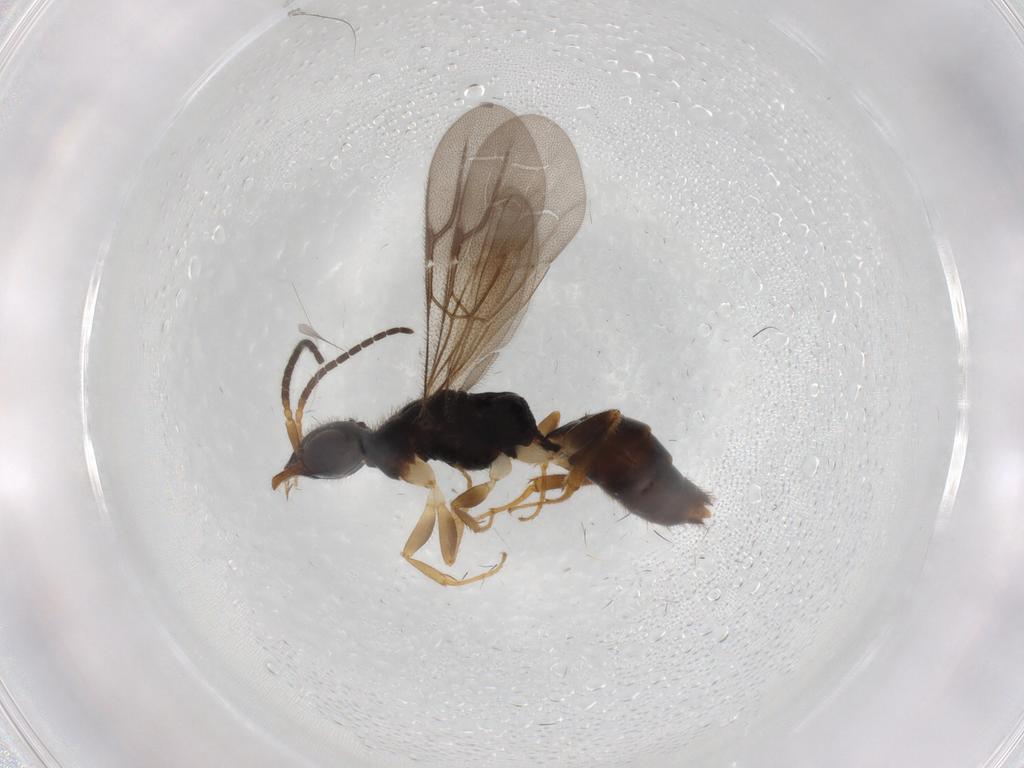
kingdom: Animalia
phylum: Arthropoda
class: Insecta
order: Hymenoptera
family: Bethylidae
